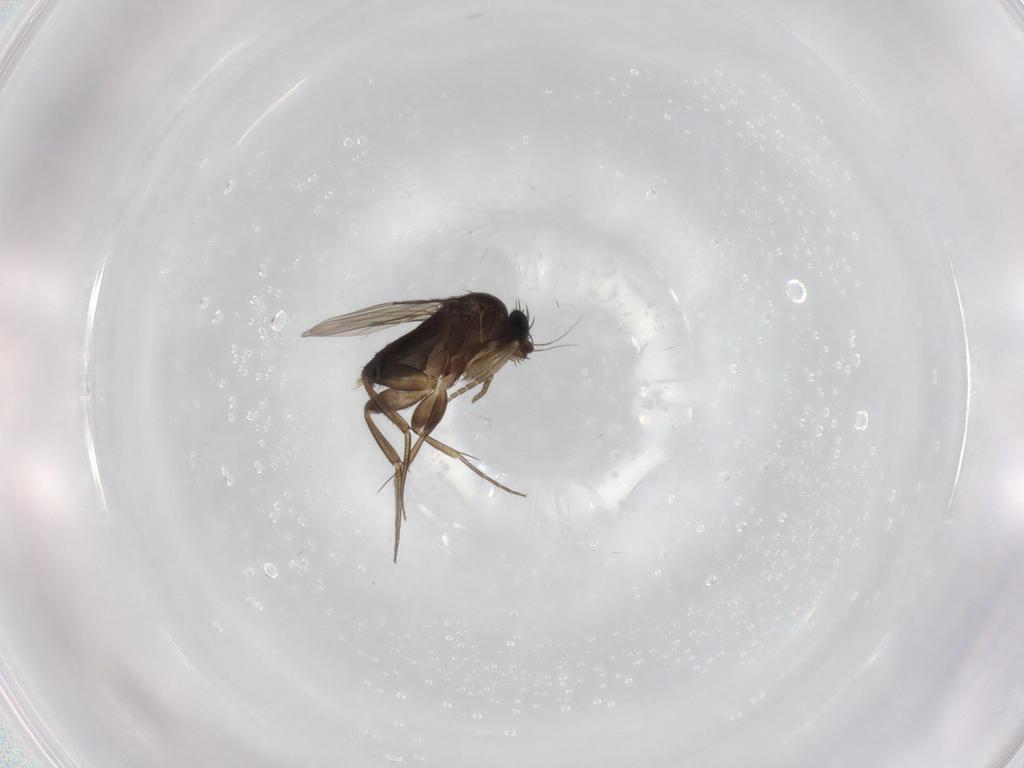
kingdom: Animalia
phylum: Arthropoda
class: Insecta
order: Diptera
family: Phoridae
